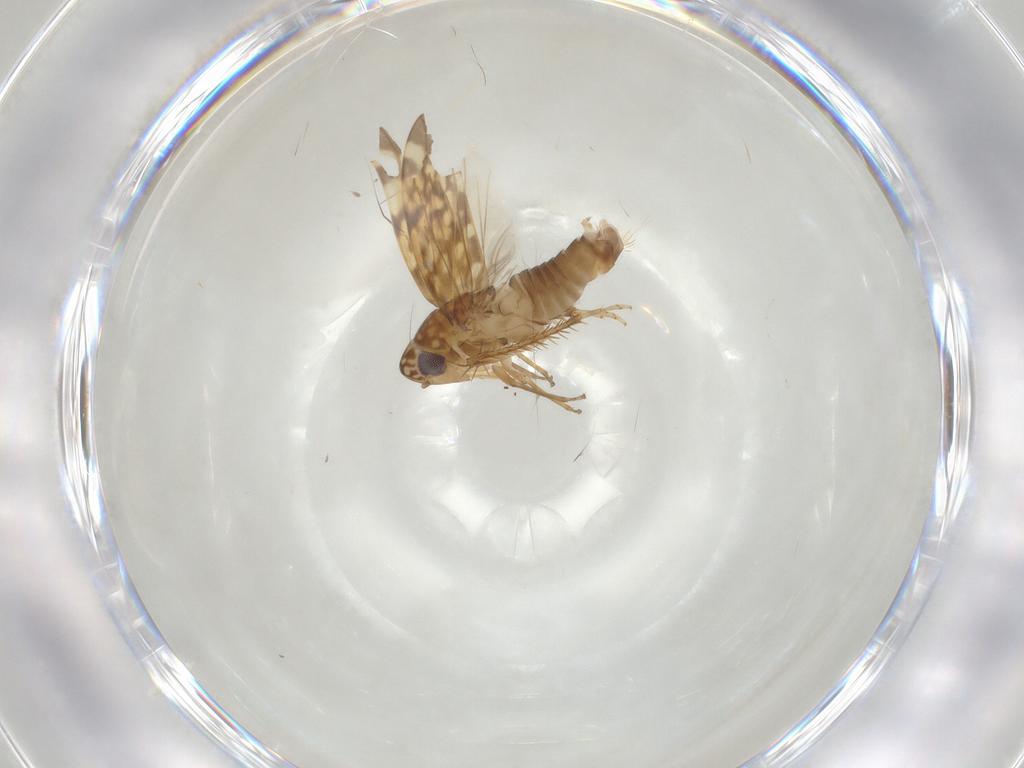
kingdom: Animalia
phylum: Arthropoda
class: Insecta
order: Hemiptera
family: Cicadellidae
